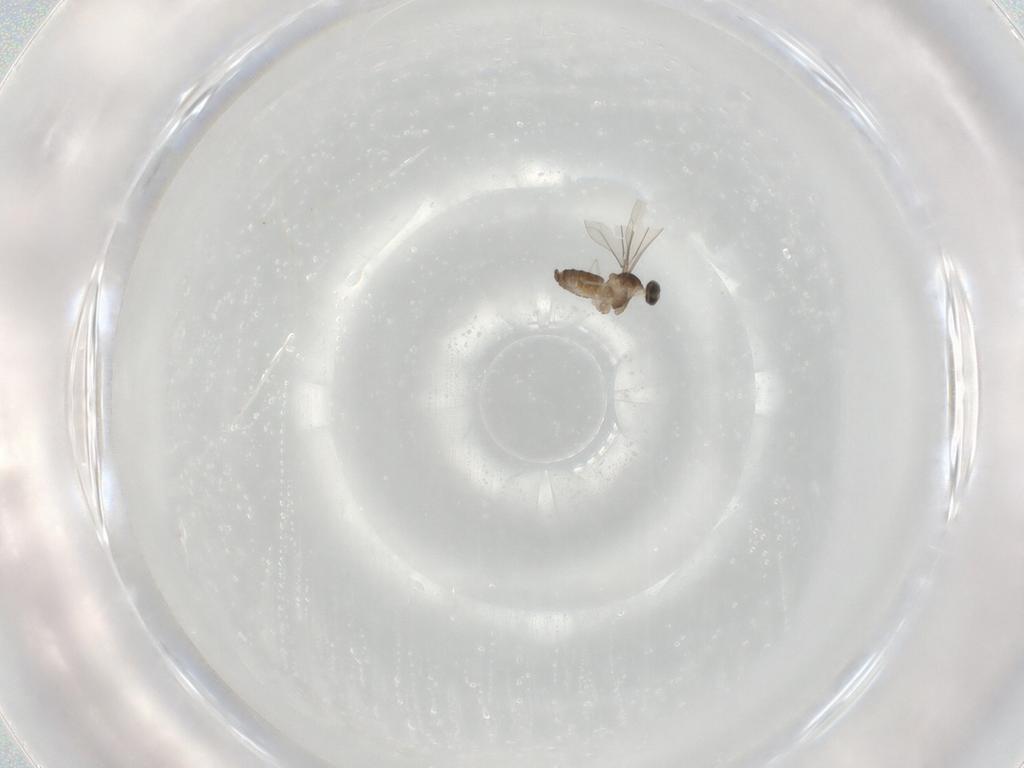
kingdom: Animalia
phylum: Arthropoda
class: Insecta
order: Diptera
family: Cecidomyiidae
